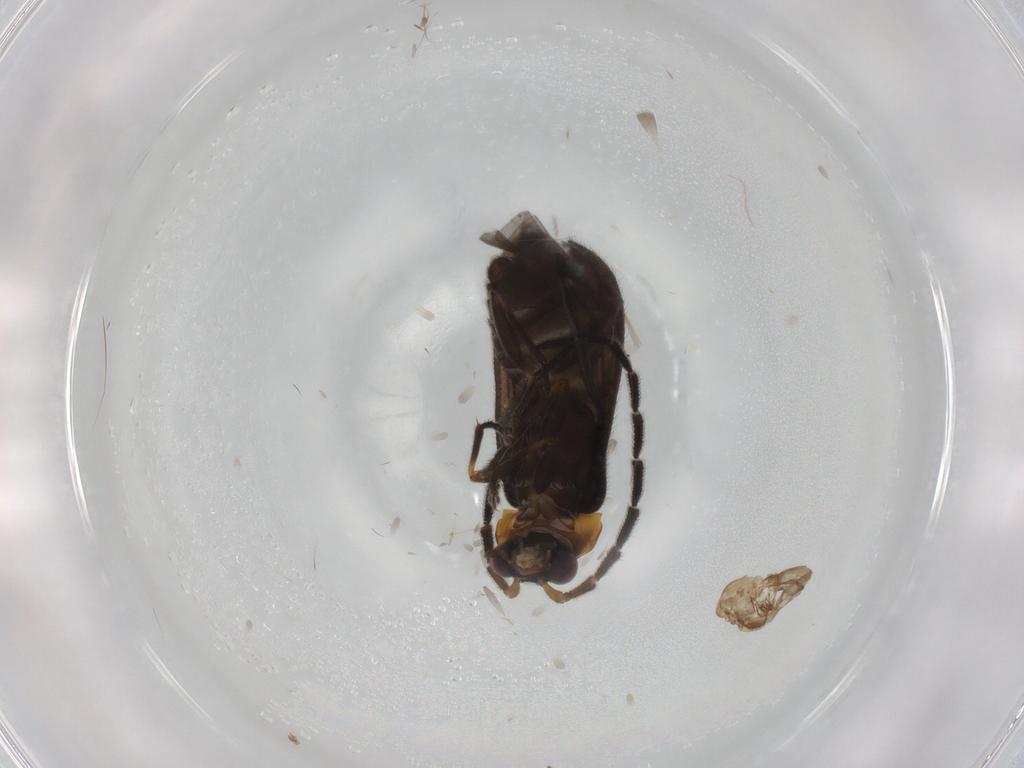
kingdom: Animalia
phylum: Arthropoda
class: Insecta
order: Coleoptera
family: Cantharidae
